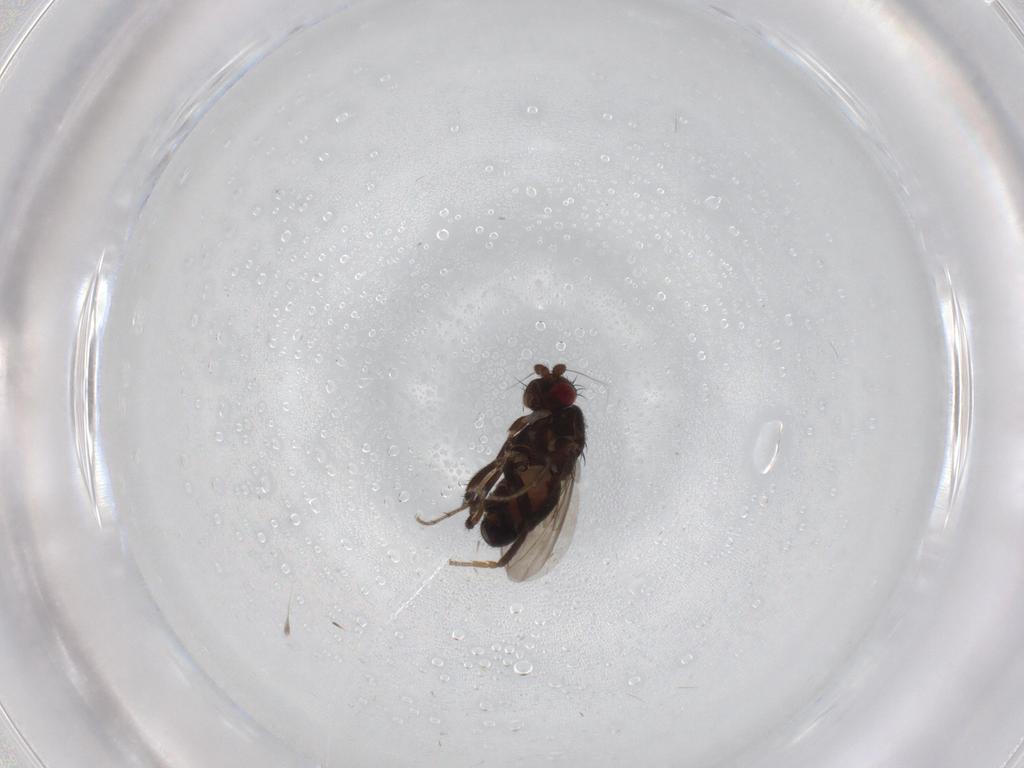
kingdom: Animalia
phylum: Arthropoda
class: Insecta
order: Diptera
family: Sphaeroceridae
